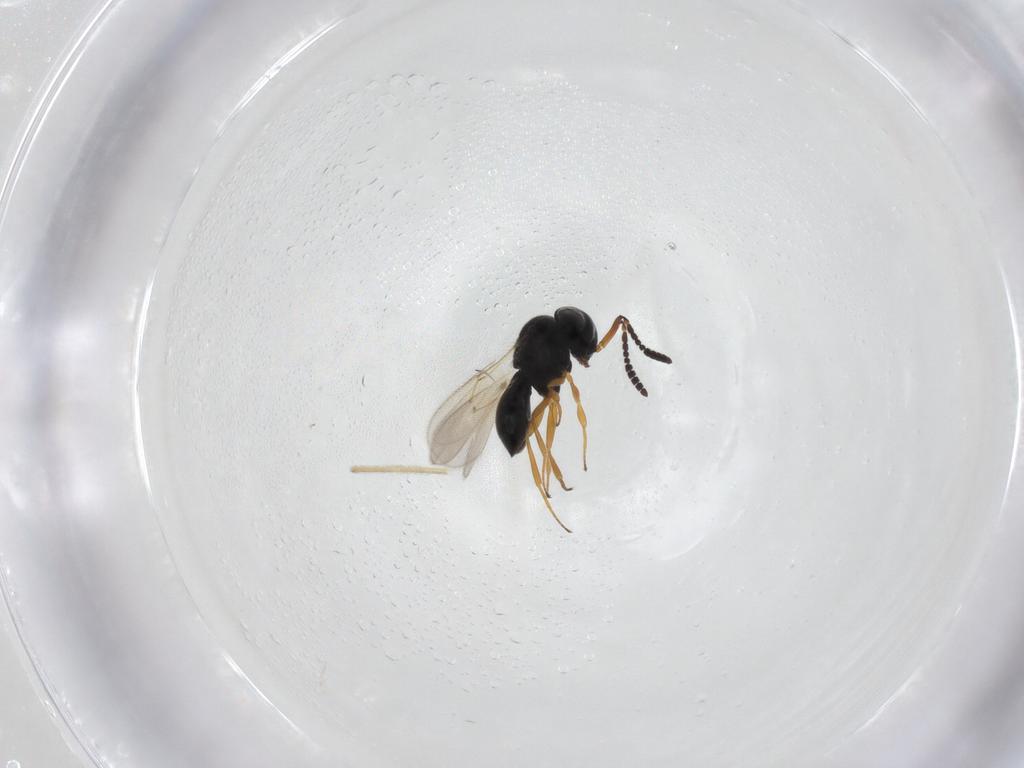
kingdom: Animalia
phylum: Arthropoda
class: Insecta
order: Hymenoptera
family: Scelionidae
